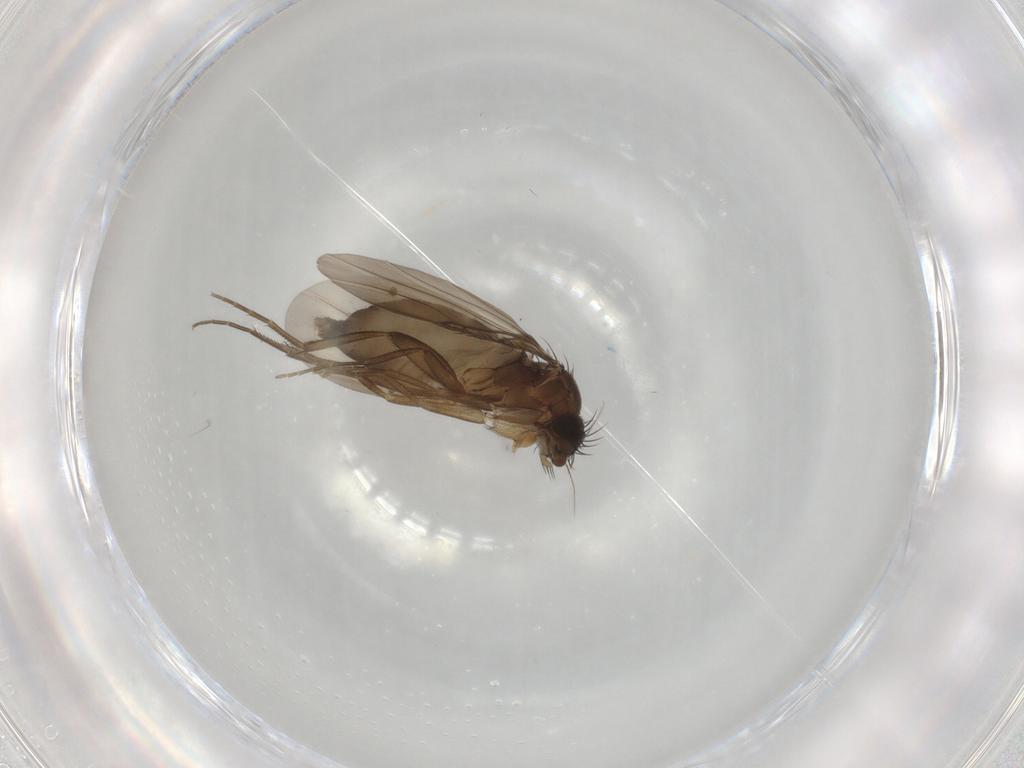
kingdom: Animalia
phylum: Arthropoda
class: Insecta
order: Diptera
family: Phoridae
